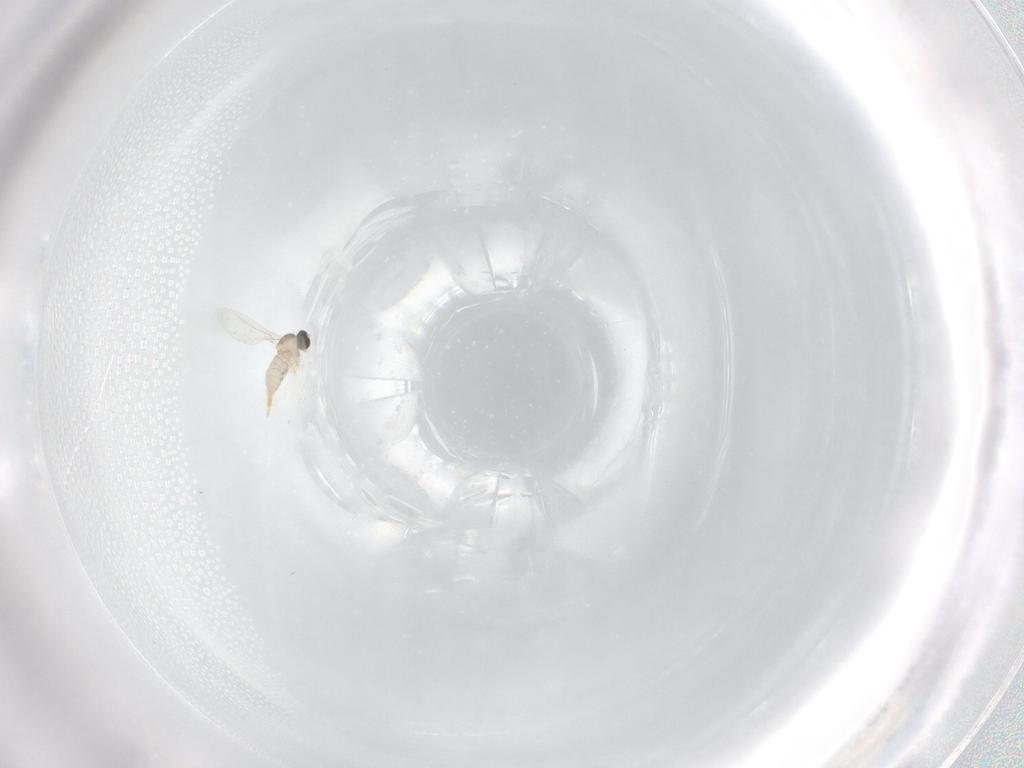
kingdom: Animalia
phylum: Arthropoda
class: Insecta
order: Diptera
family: Cecidomyiidae
